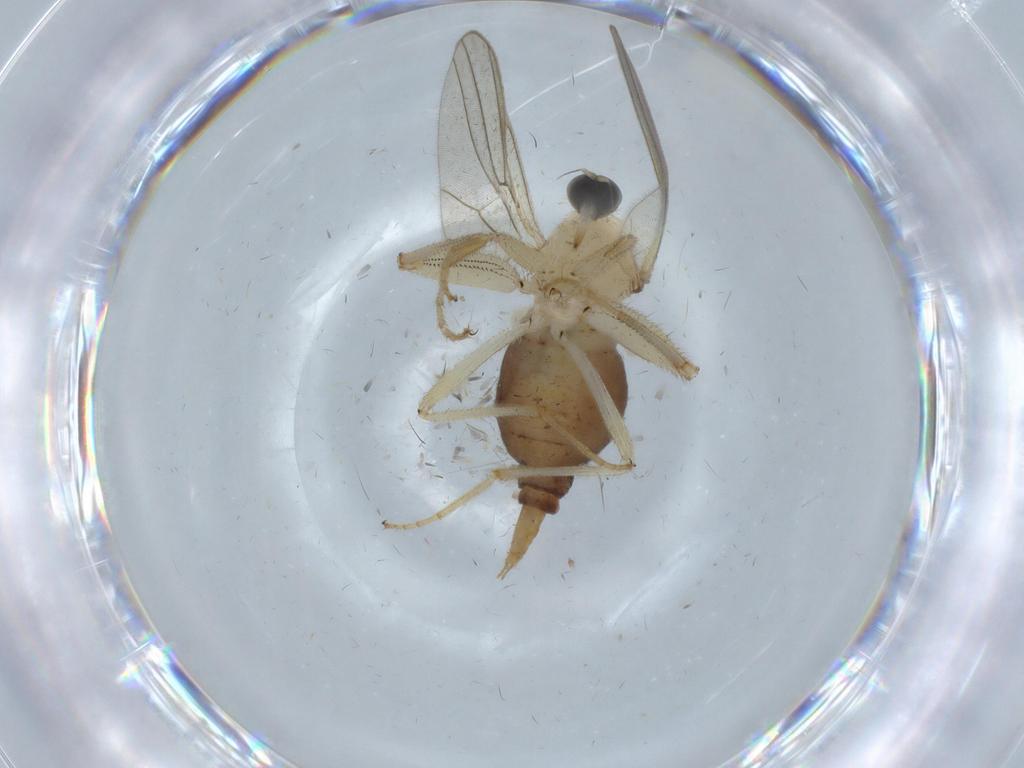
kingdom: Animalia
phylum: Arthropoda
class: Insecta
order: Diptera
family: Hybotidae
